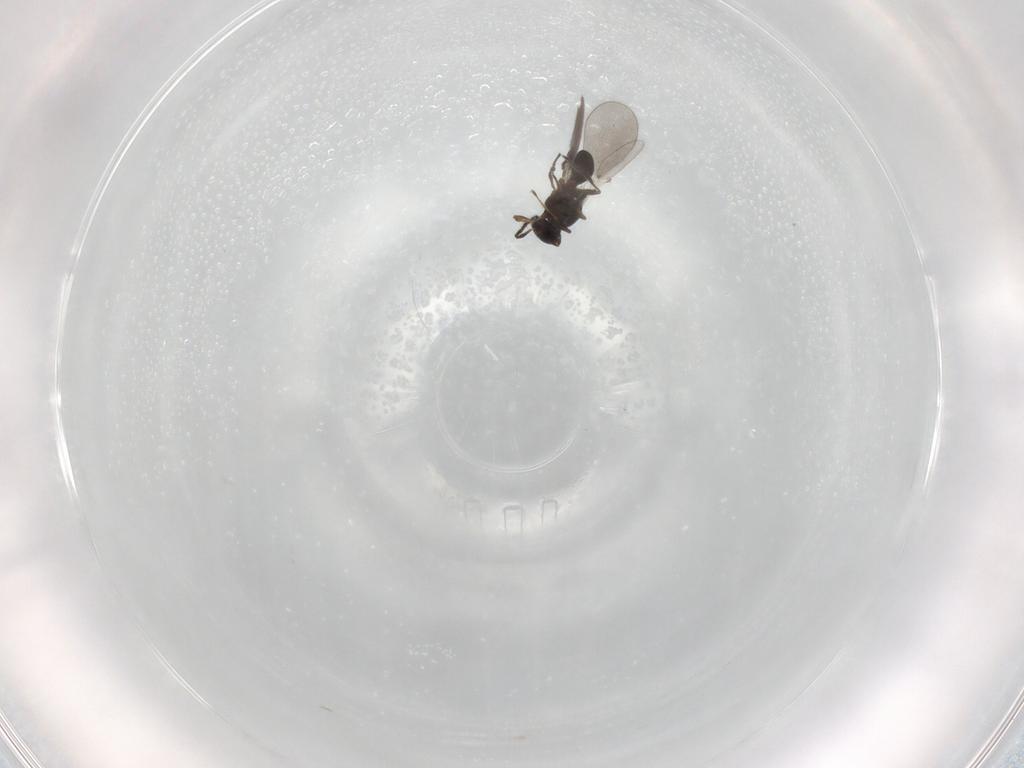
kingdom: Animalia
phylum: Arthropoda
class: Insecta
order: Hymenoptera
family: Platygastridae
